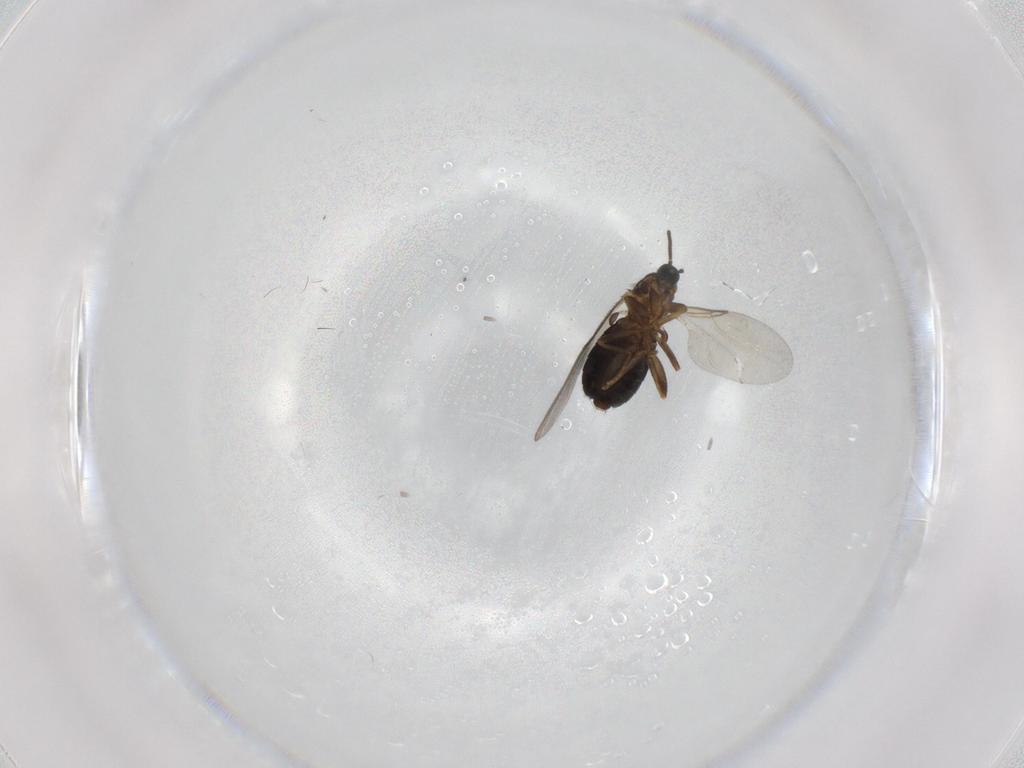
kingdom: Animalia
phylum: Arthropoda
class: Insecta
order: Diptera
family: Scatopsidae
